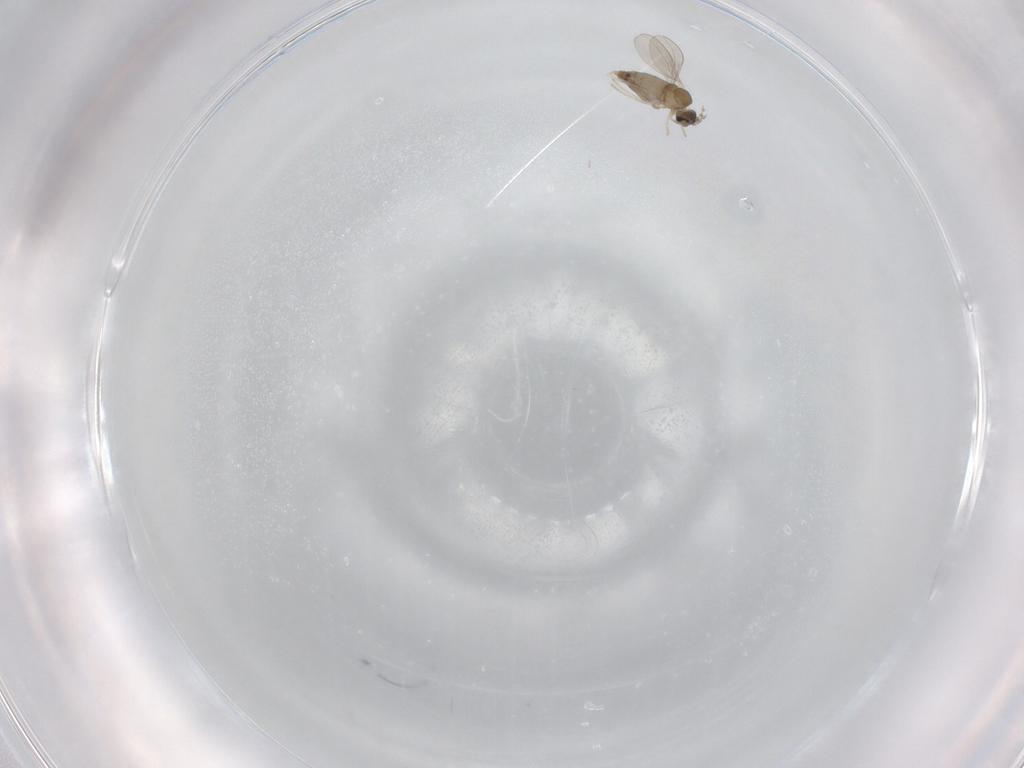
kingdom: Animalia
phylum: Arthropoda
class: Insecta
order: Diptera
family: Cecidomyiidae
